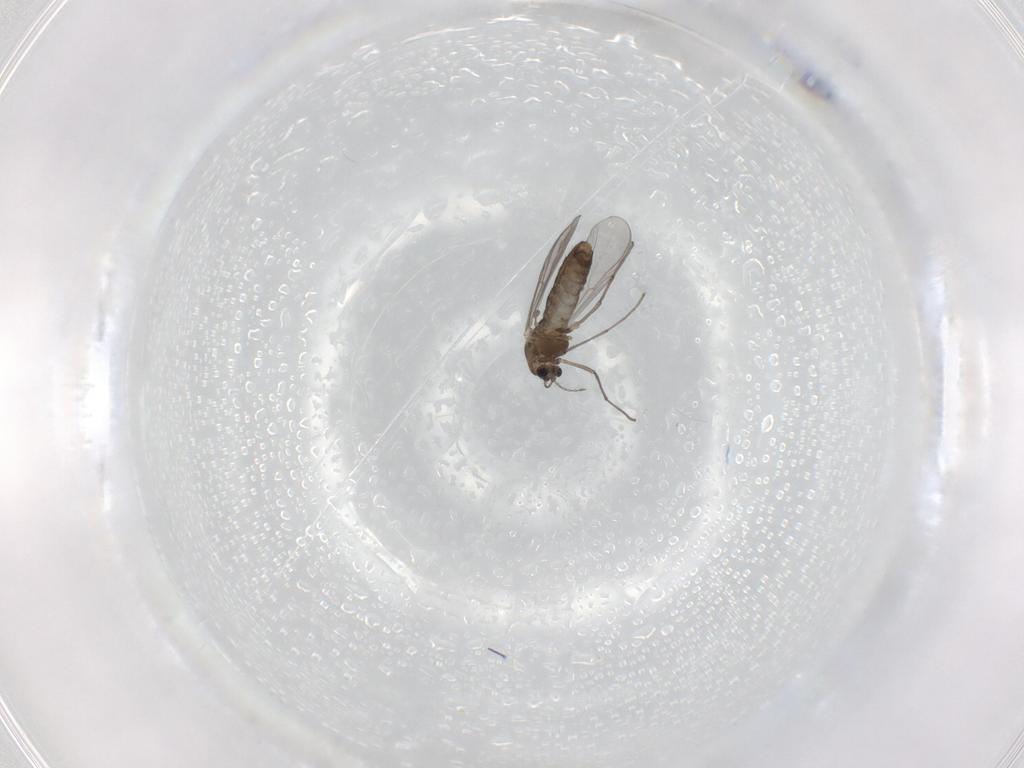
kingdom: Animalia
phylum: Arthropoda
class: Insecta
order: Diptera
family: Chironomidae
